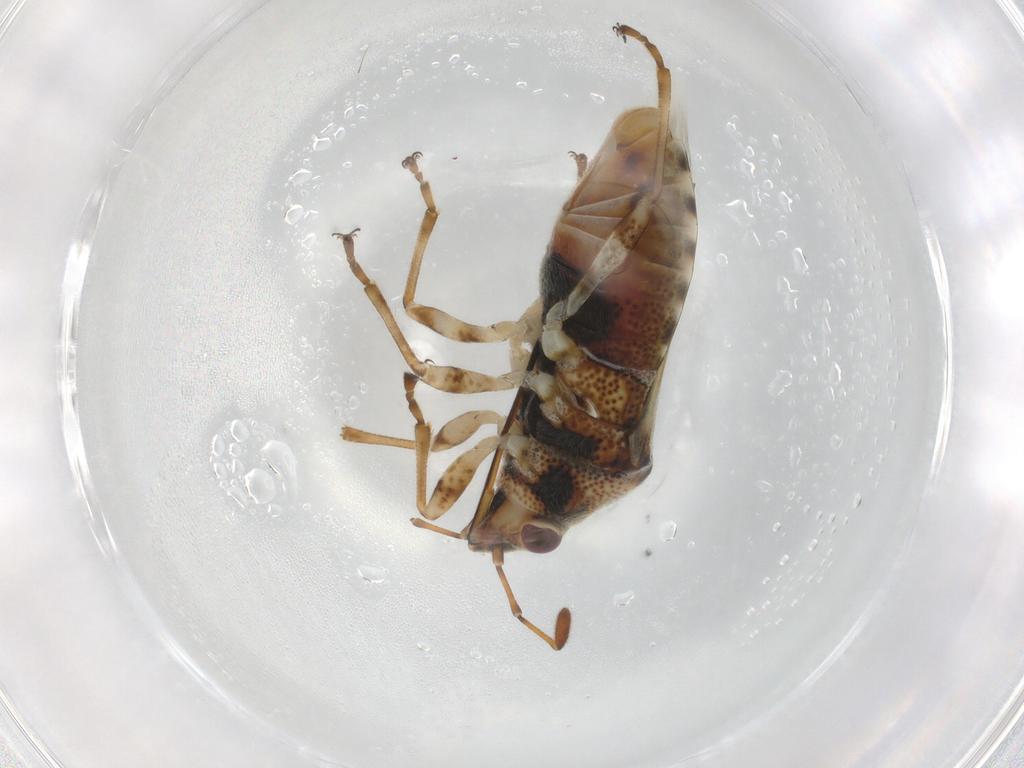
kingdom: Animalia
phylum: Arthropoda
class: Insecta
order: Hemiptera
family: Lygaeidae
